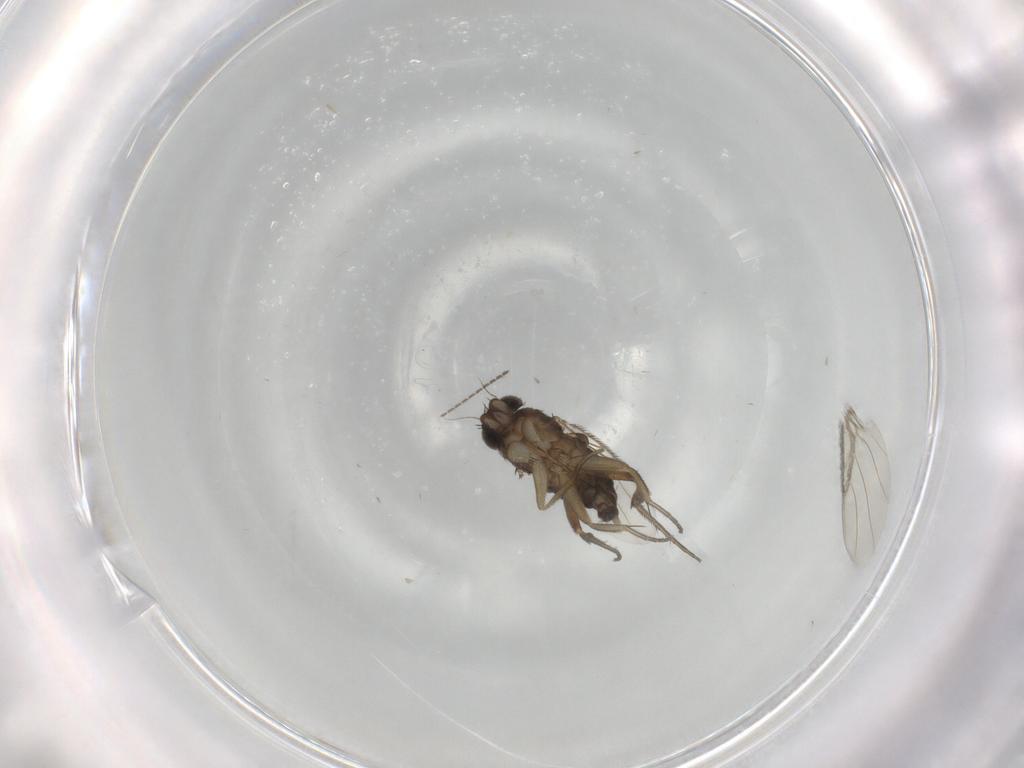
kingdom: Animalia
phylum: Arthropoda
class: Insecta
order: Diptera
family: Phoridae
